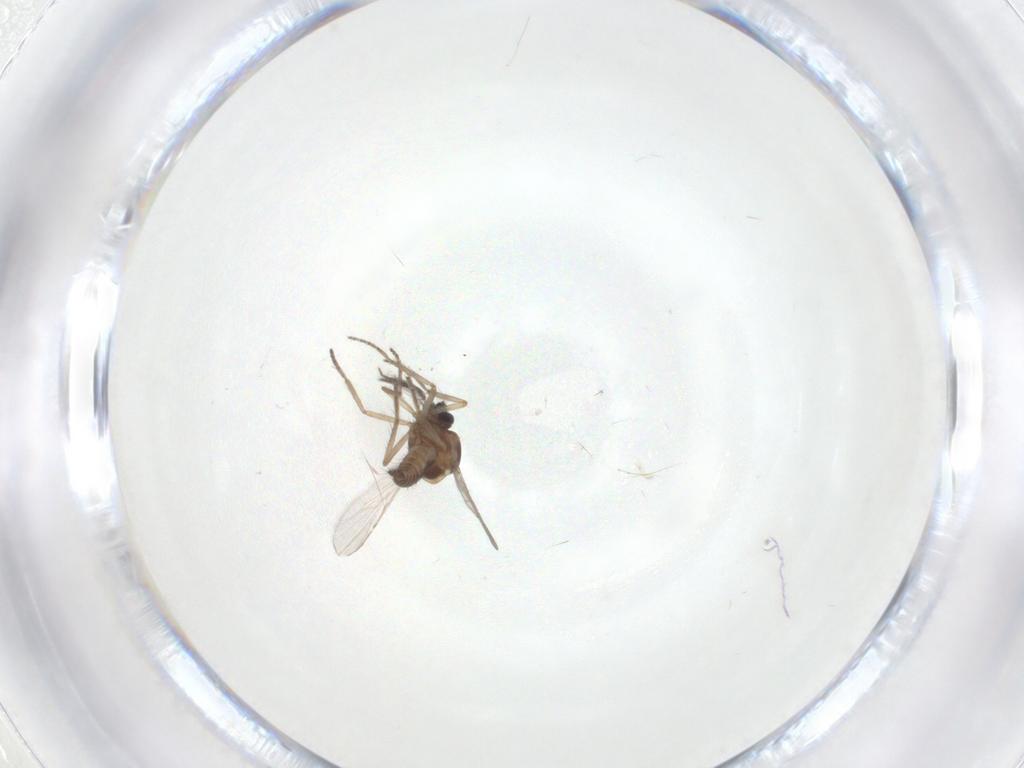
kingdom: Animalia
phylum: Arthropoda
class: Insecta
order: Diptera
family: Ceratopogonidae
